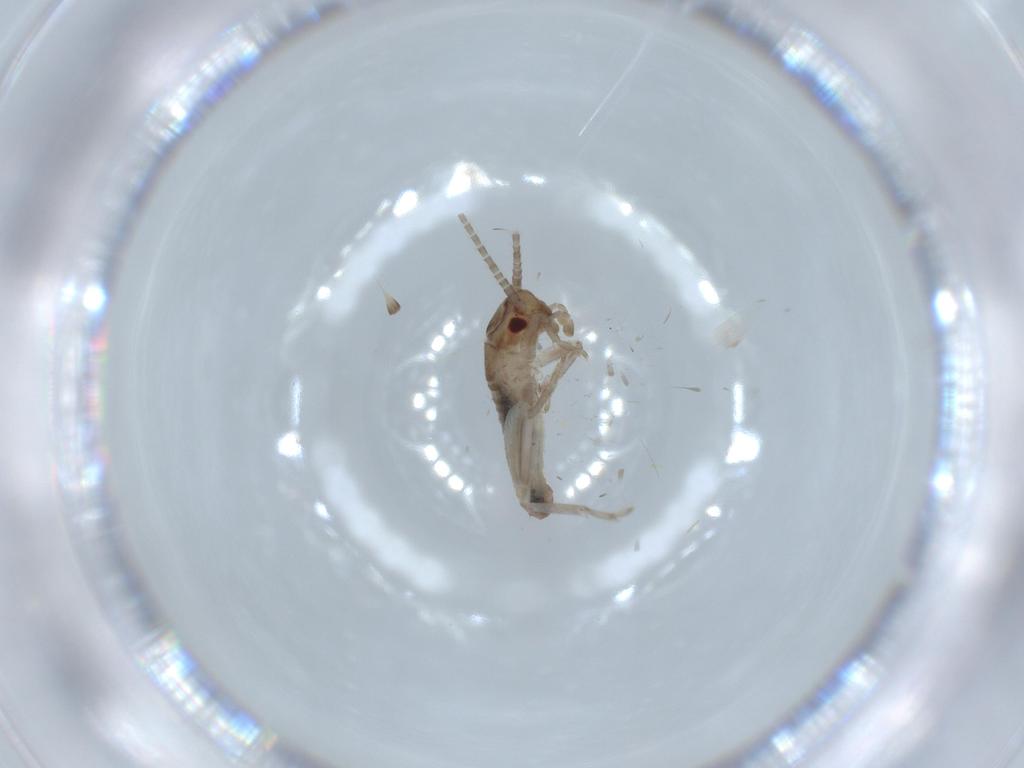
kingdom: Animalia
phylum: Arthropoda
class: Insecta
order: Orthoptera
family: Mogoplistidae
